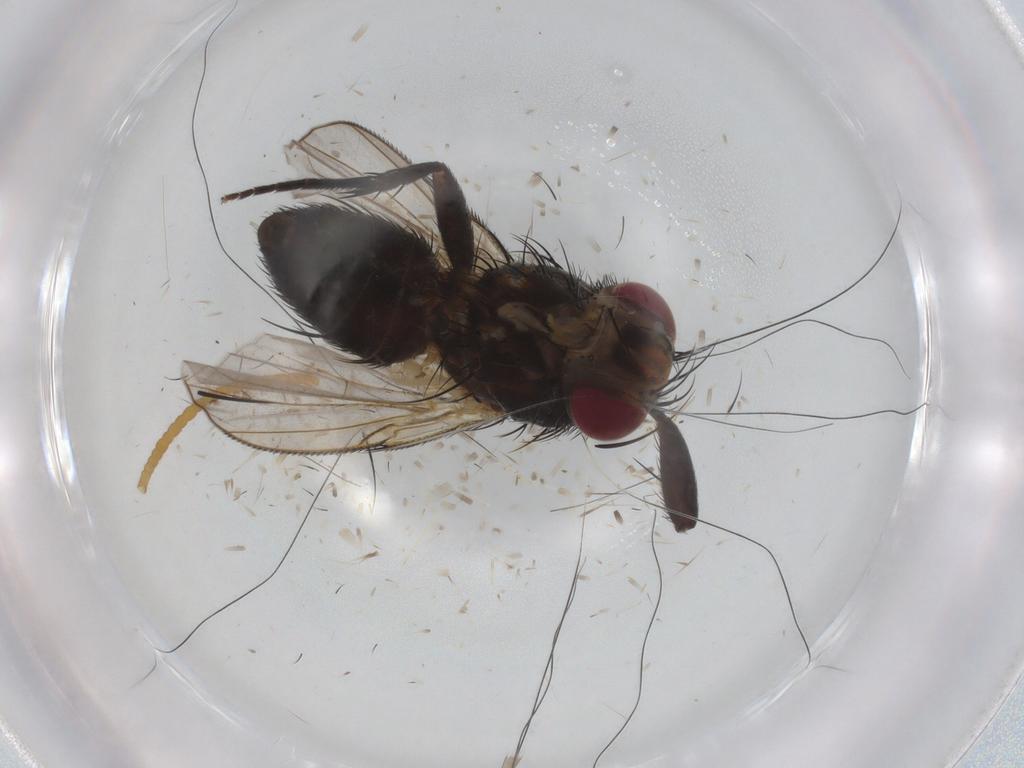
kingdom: Animalia
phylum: Arthropoda
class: Insecta
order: Diptera
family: Tachinidae
